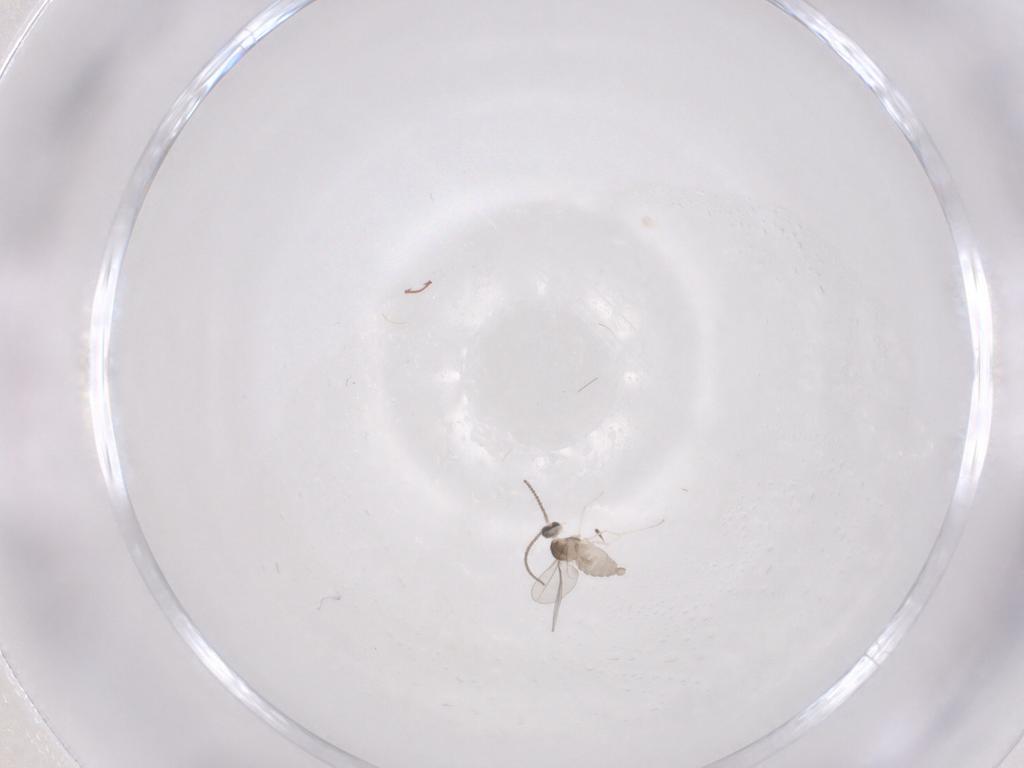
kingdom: Animalia
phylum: Arthropoda
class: Insecta
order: Diptera
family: Cecidomyiidae
